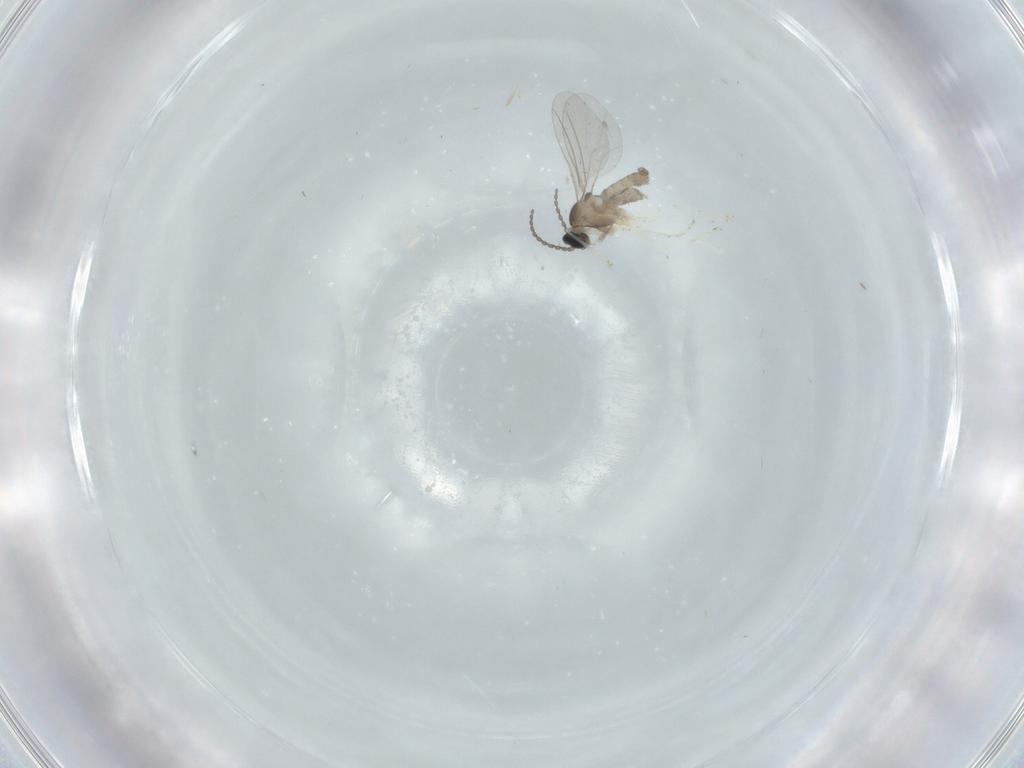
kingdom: Animalia
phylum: Arthropoda
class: Insecta
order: Diptera
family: Cecidomyiidae
